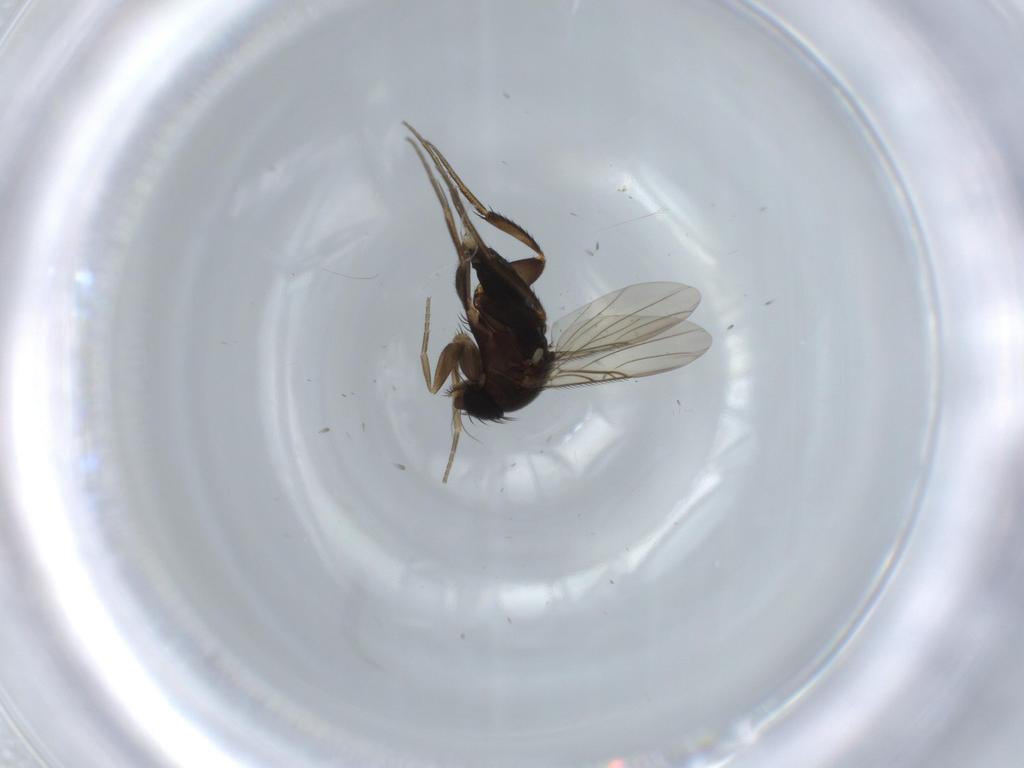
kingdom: Animalia
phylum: Arthropoda
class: Insecta
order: Diptera
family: Phoridae
